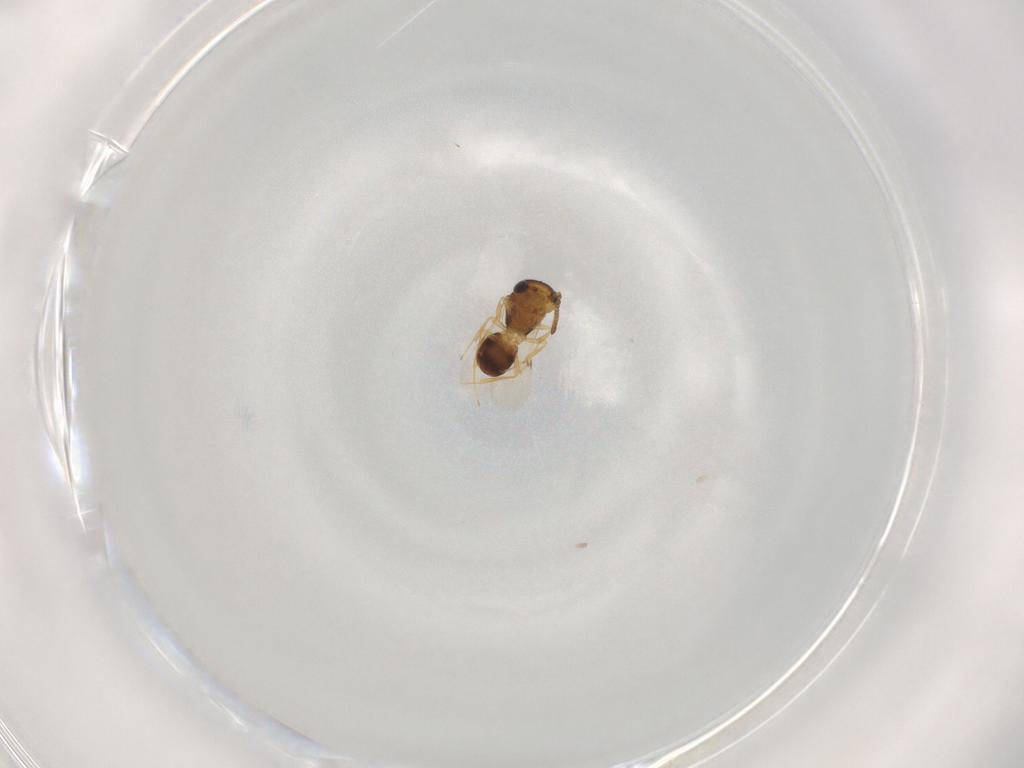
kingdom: Animalia
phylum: Arthropoda
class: Insecta
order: Hymenoptera
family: Scelionidae
